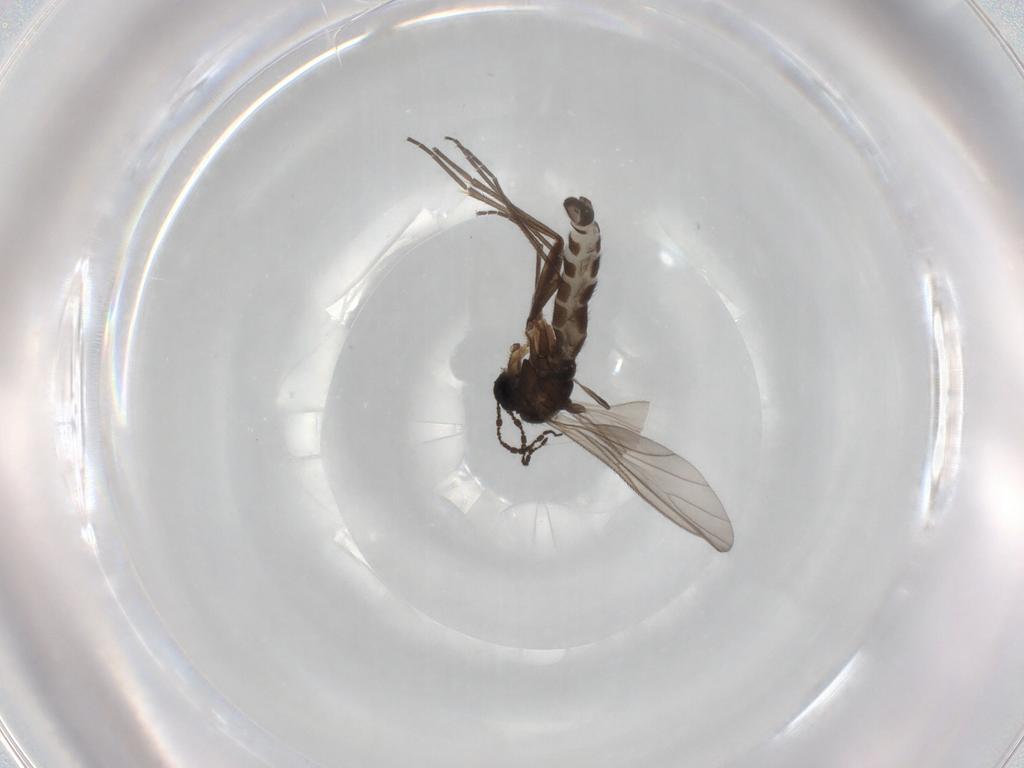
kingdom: Animalia
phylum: Arthropoda
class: Insecta
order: Diptera
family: Sciaridae
